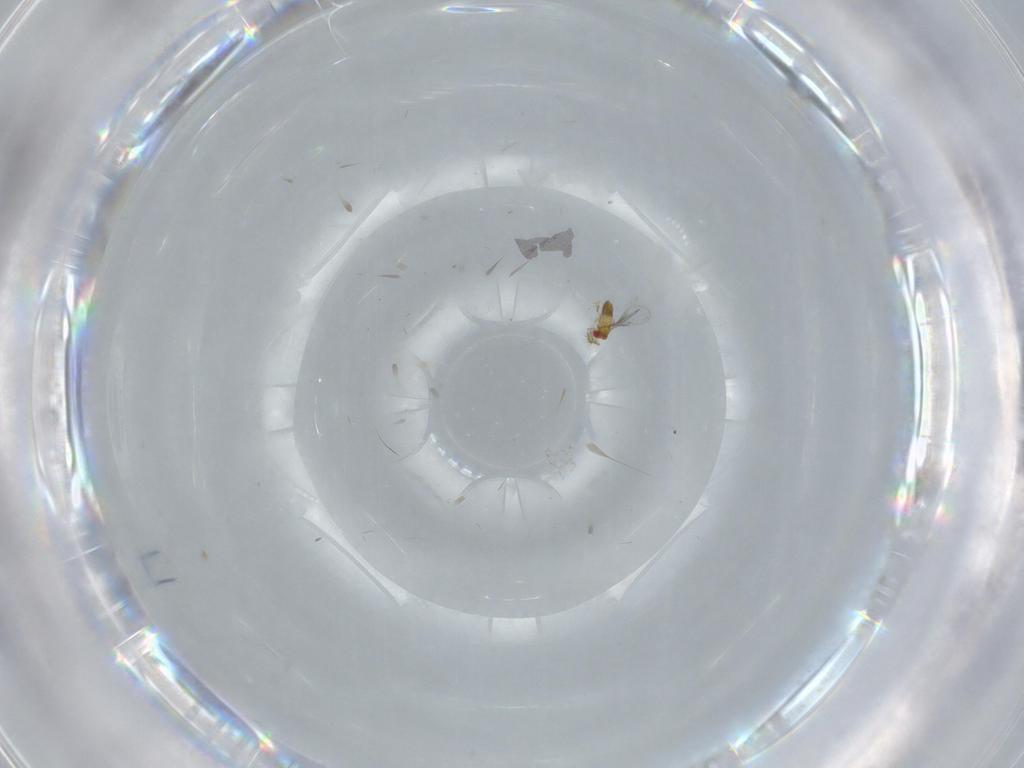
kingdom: Animalia
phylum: Arthropoda
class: Insecta
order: Hymenoptera
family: Trichogrammatidae
